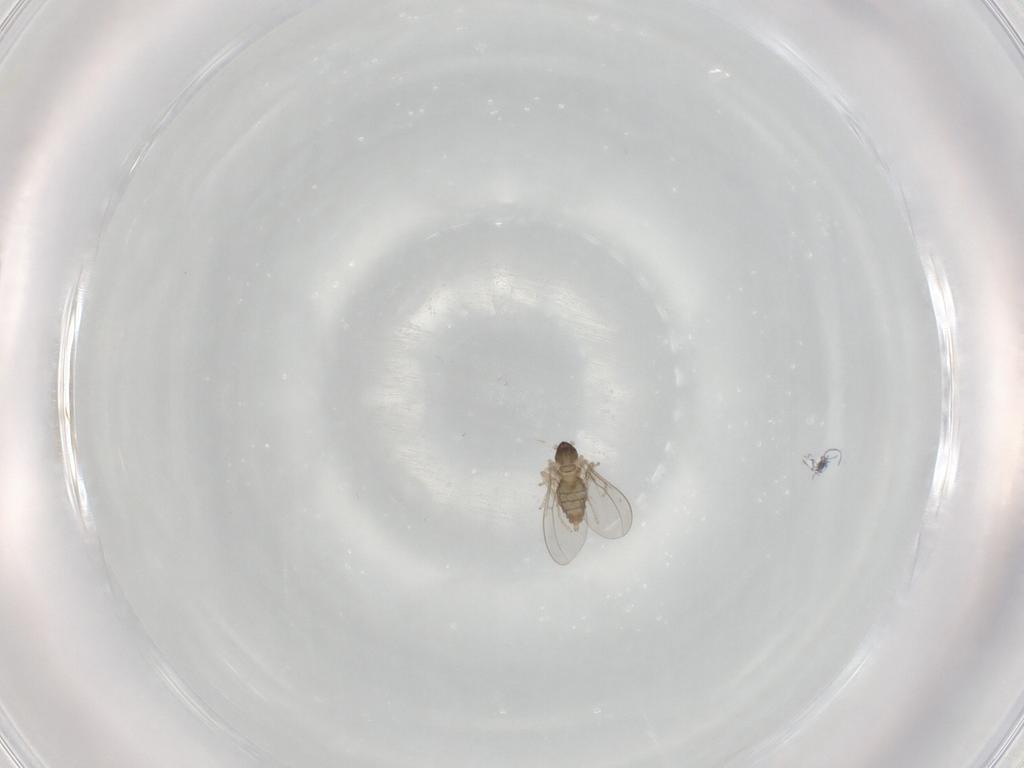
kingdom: Animalia
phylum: Arthropoda
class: Insecta
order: Diptera
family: Cecidomyiidae
